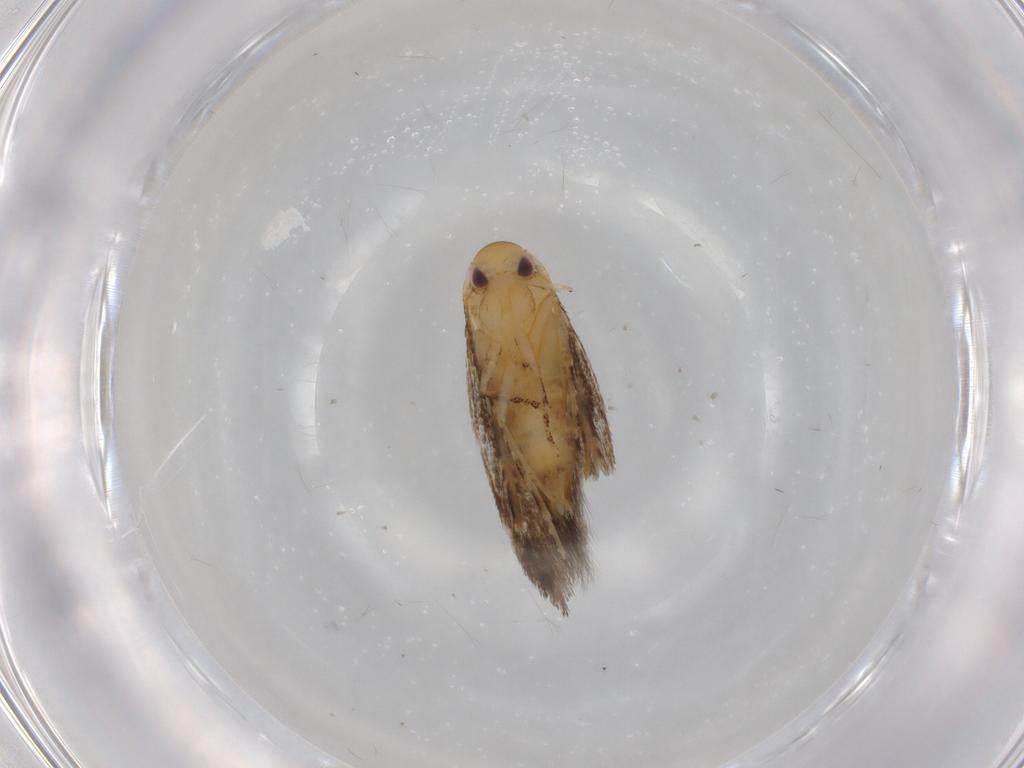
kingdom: Animalia
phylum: Arthropoda
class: Insecta
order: Lepidoptera
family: Momphidae
